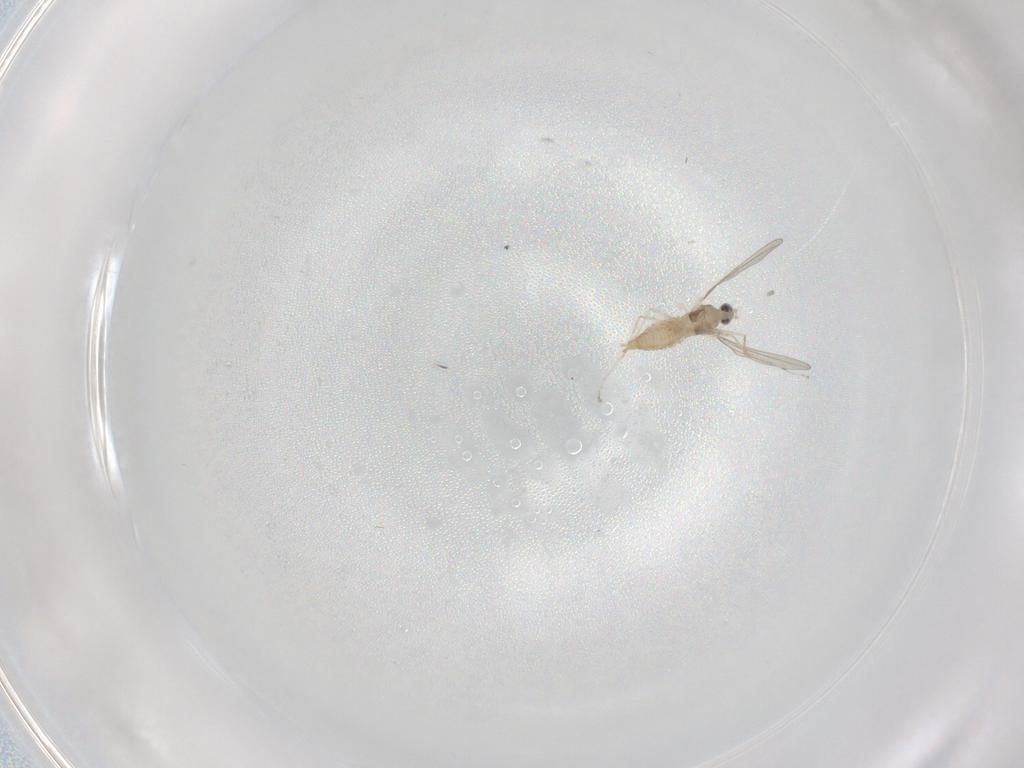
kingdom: Animalia
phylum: Arthropoda
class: Insecta
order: Diptera
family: Cecidomyiidae
